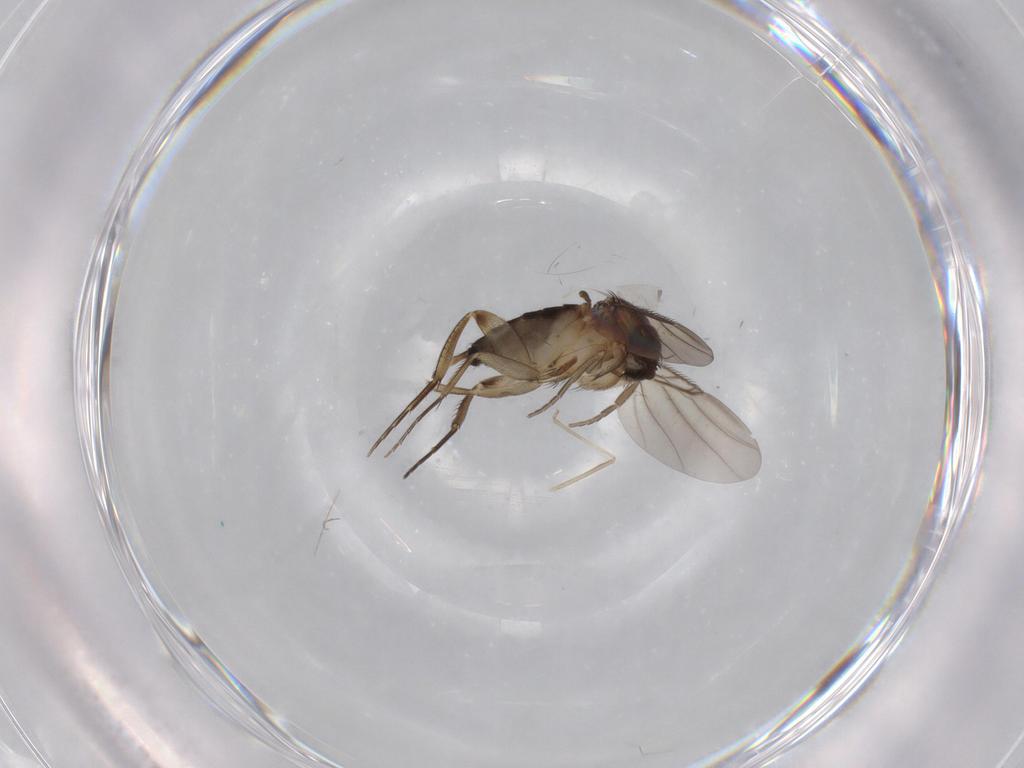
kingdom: Animalia
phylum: Arthropoda
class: Insecta
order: Diptera
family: Phoridae
